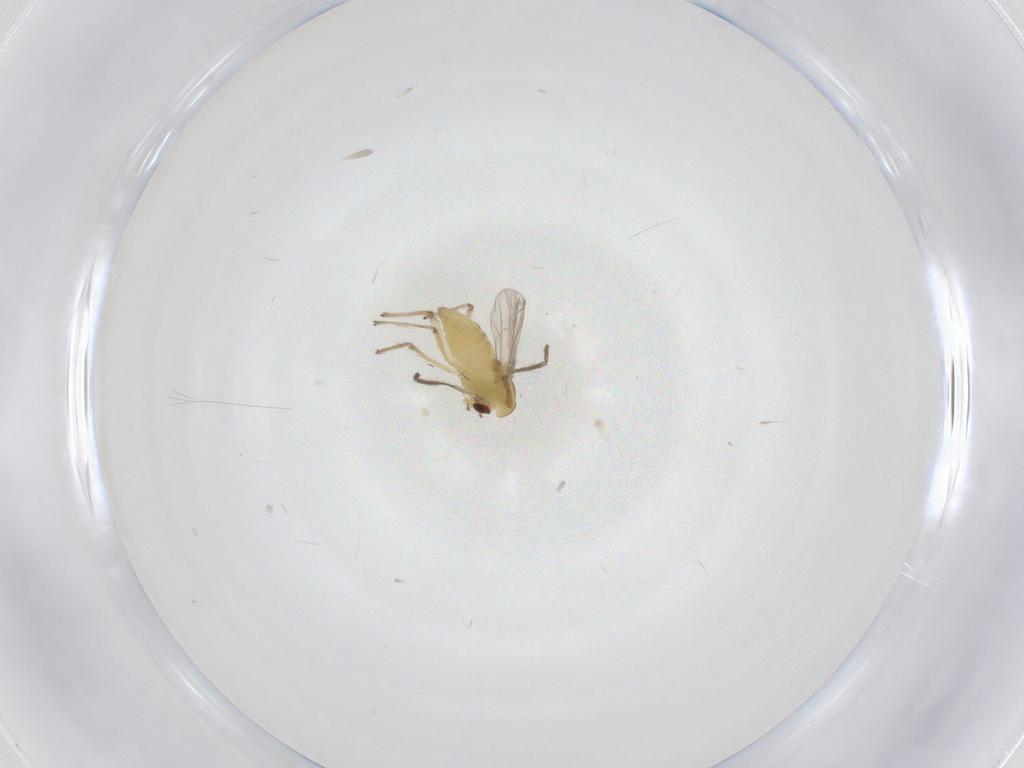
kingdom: Animalia
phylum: Arthropoda
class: Insecta
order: Diptera
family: Chironomidae
